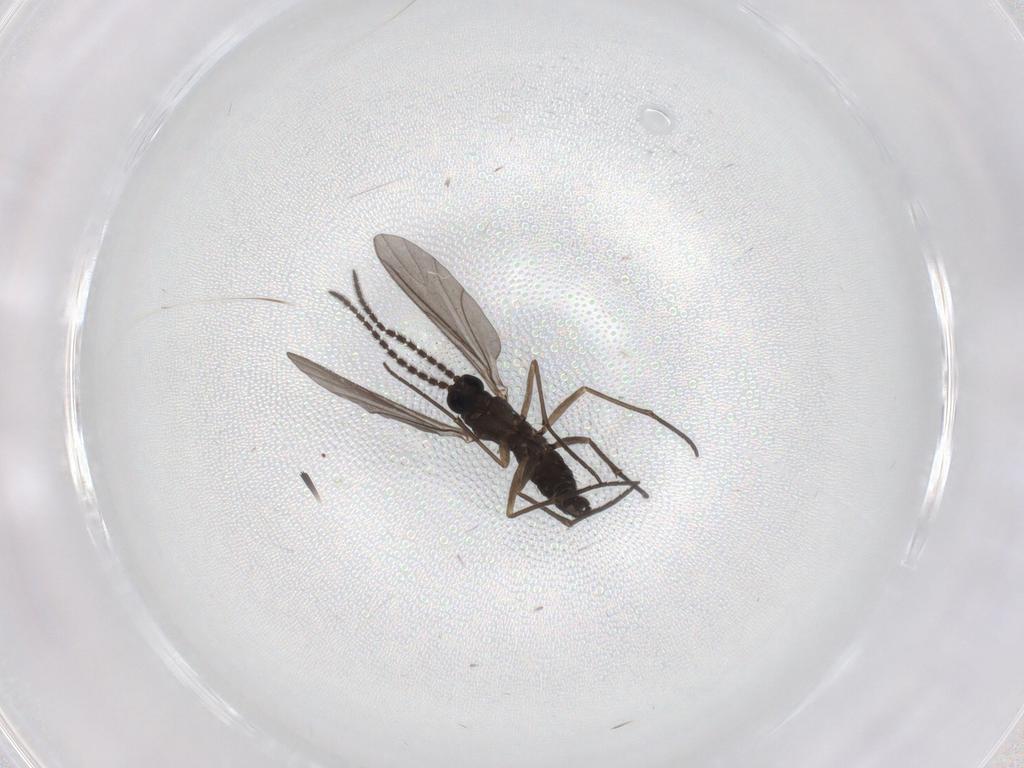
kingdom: Animalia
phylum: Arthropoda
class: Insecta
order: Diptera
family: Sciaridae
